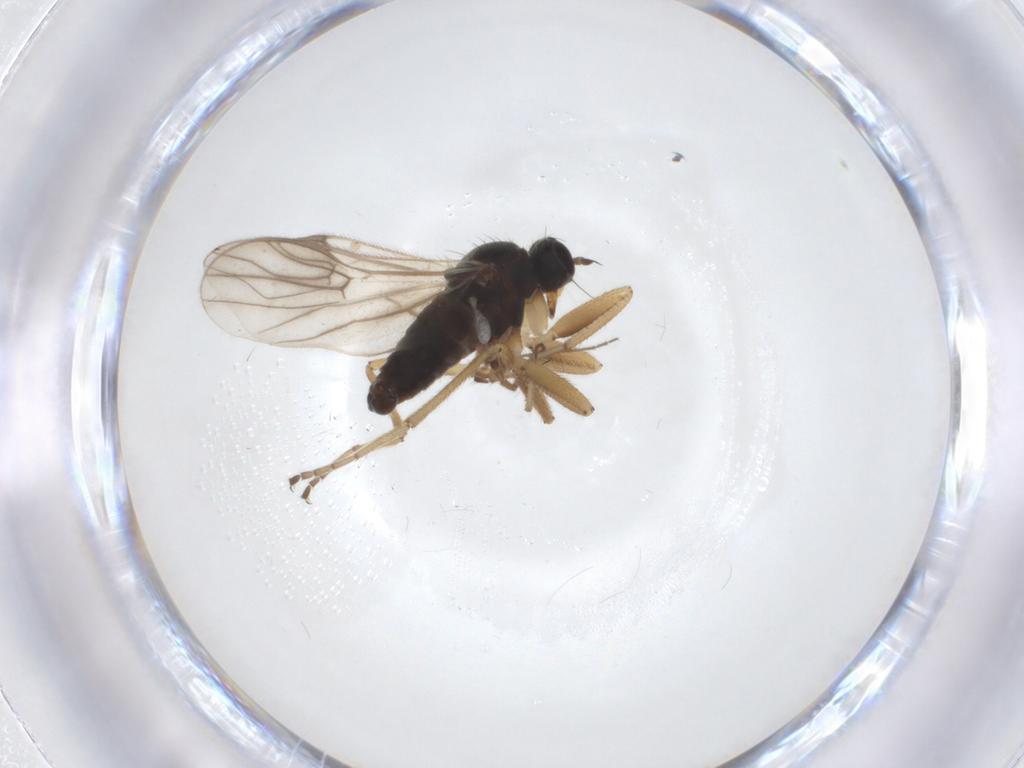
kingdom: Animalia
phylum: Arthropoda
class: Insecta
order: Diptera
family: Hybotidae
